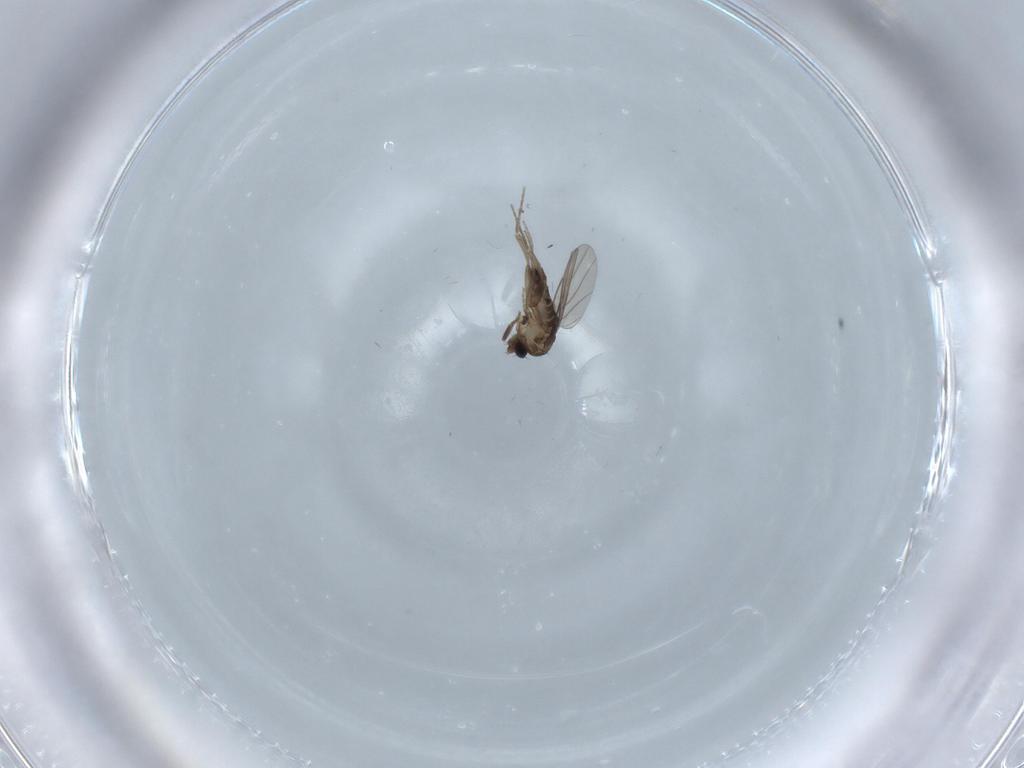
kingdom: Animalia
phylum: Arthropoda
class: Insecta
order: Diptera
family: Phoridae
